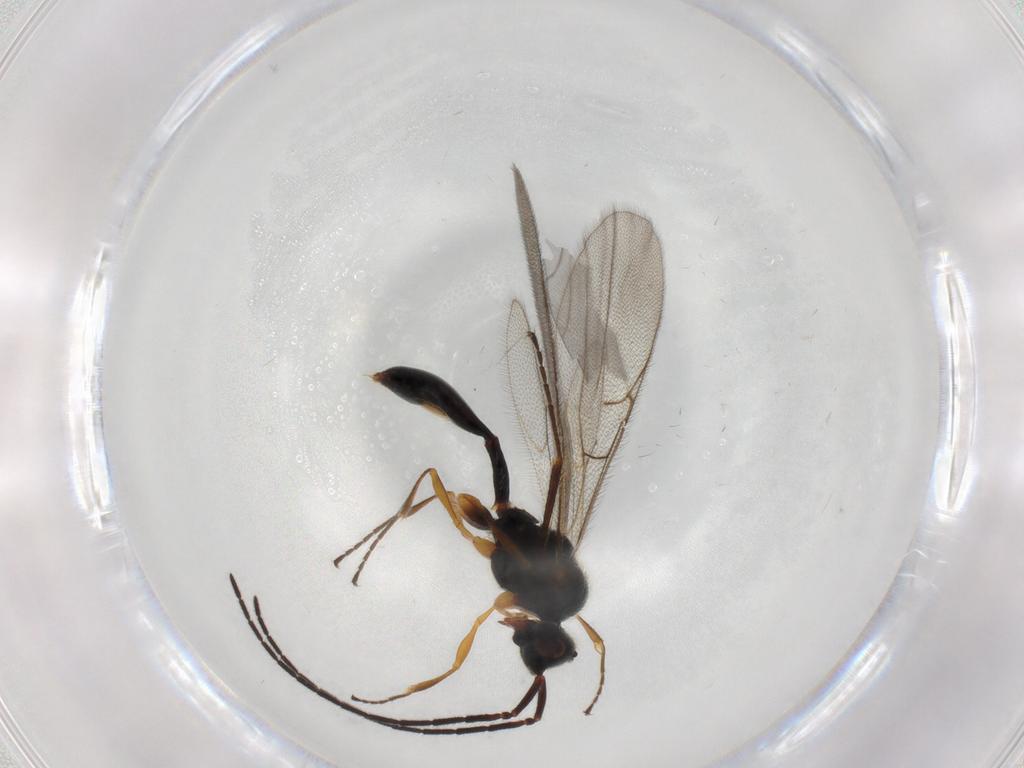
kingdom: Animalia
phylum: Arthropoda
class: Insecta
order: Hymenoptera
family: Diapriidae
